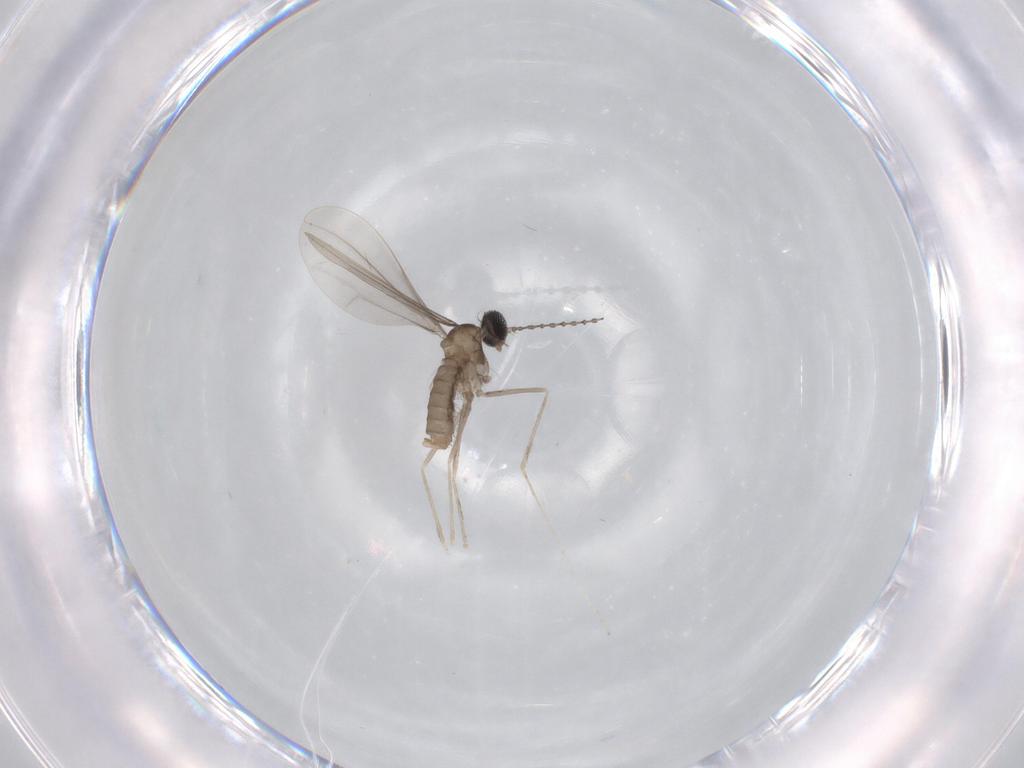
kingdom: Animalia
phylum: Arthropoda
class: Insecta
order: Diptera
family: Cecidomyiidae
